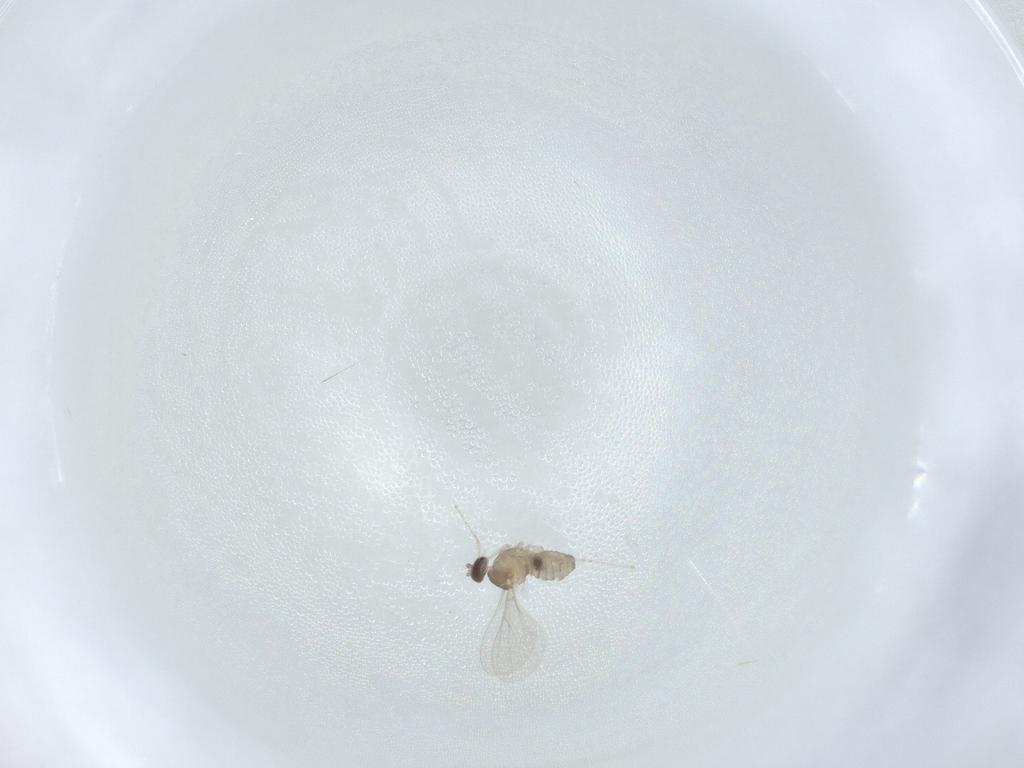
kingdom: Animalia
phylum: Arthropoda
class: Insecta
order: Diptera
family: Cecidomyiidae
